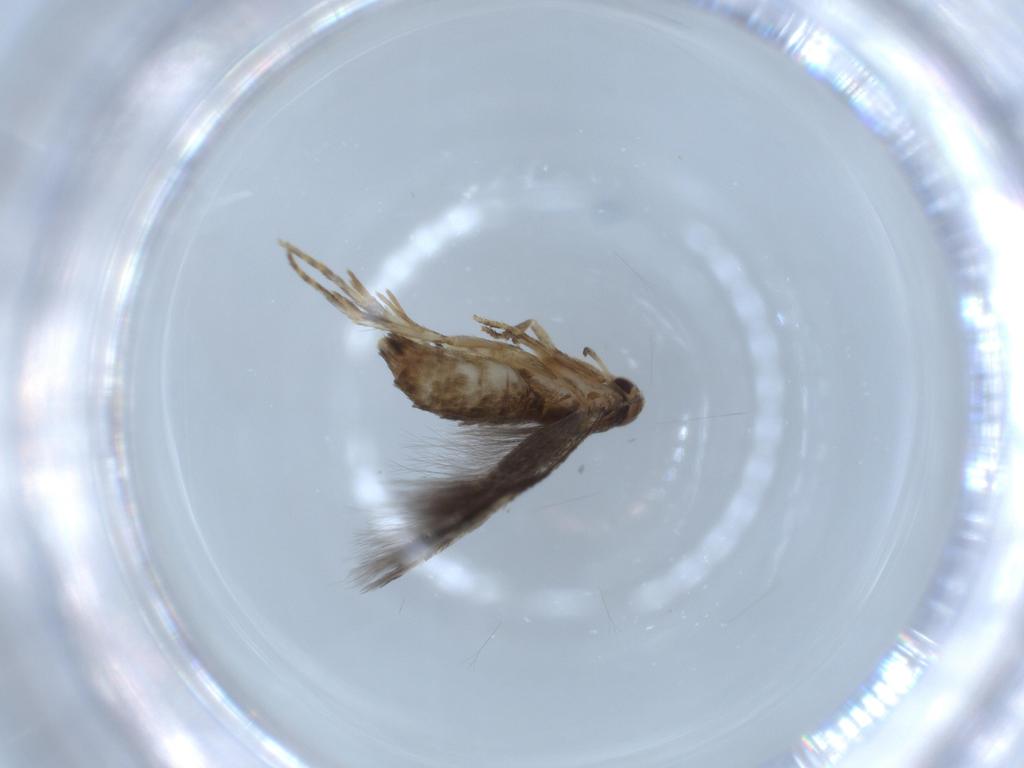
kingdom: Animalia
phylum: Arthropoda
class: Insecta
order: Lepidoptera
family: Gelechiidae
